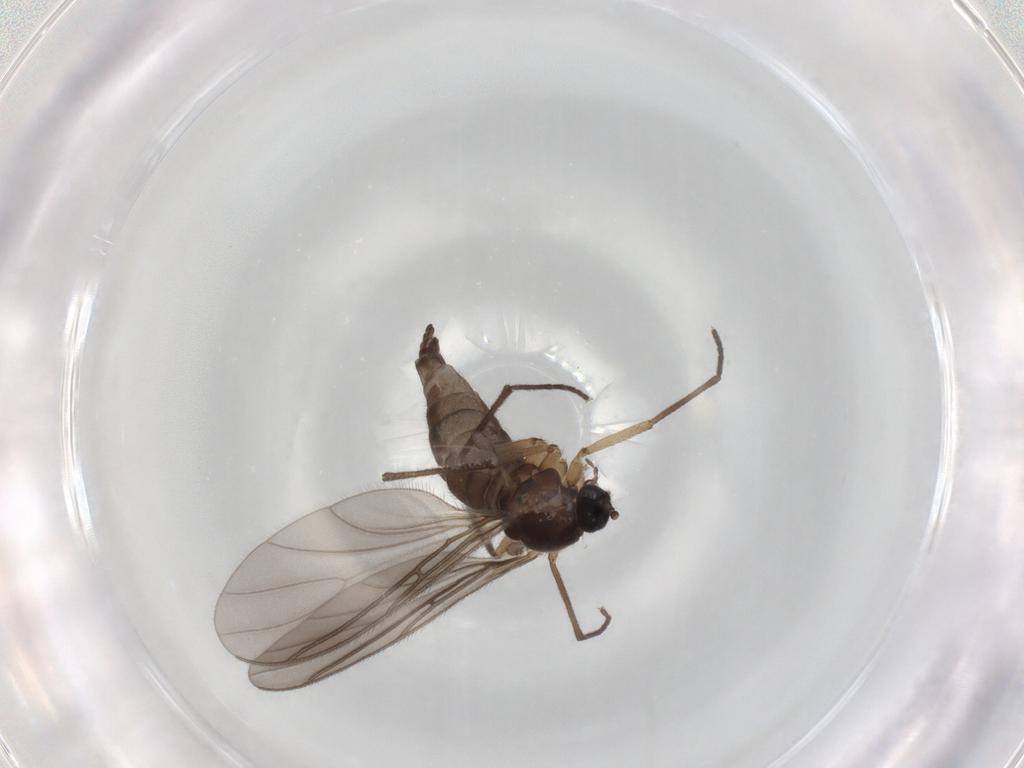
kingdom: Animalia
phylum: Arthropoda
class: Insecta
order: Diptera
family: Sciaridae
